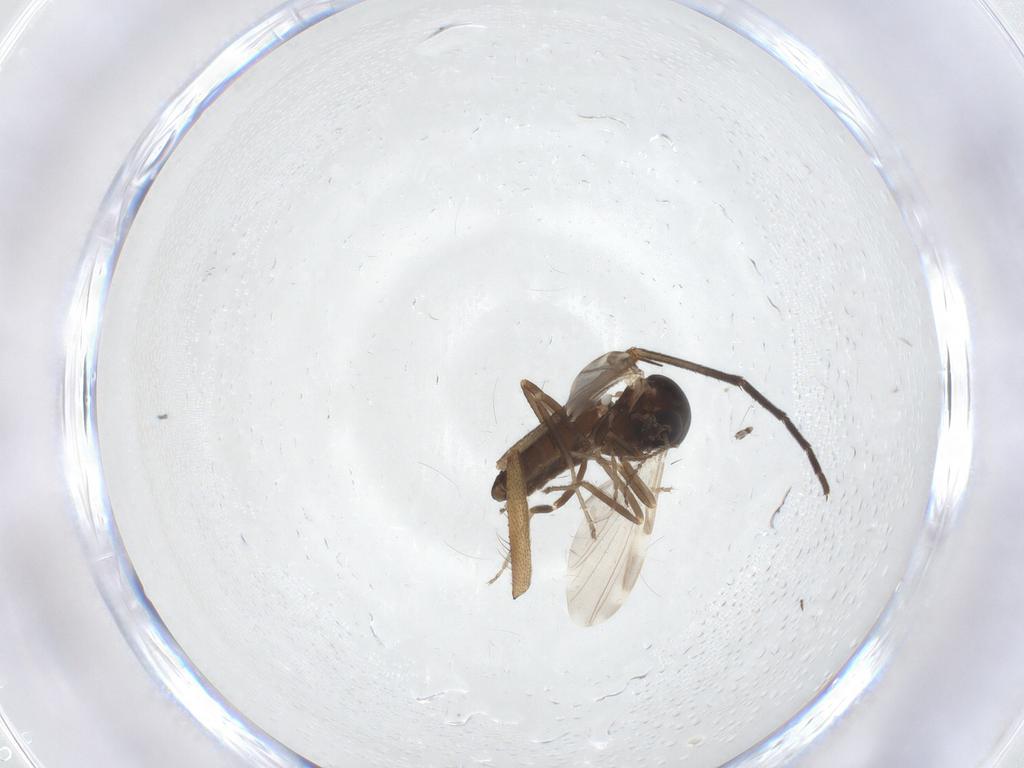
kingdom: Animalia
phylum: Arthropoda
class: Insecta
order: Diptera
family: Ceratopogonidae
